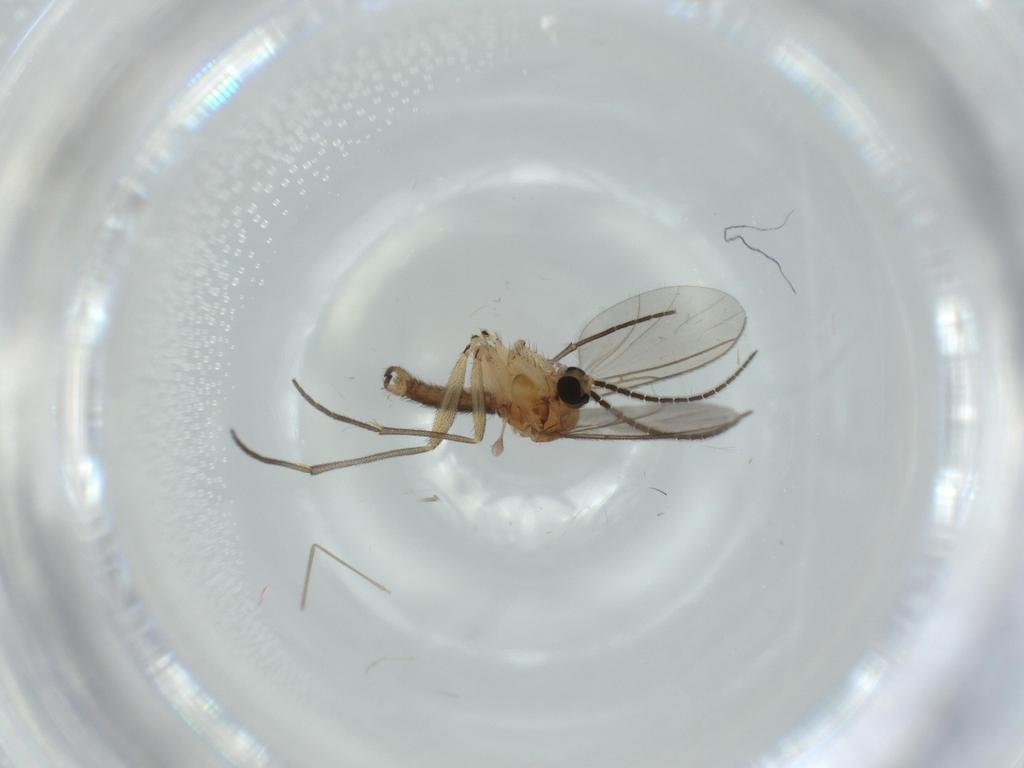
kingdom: Animalia
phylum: Arthropoda
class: Insecta
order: Diptera
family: Sciaridae
